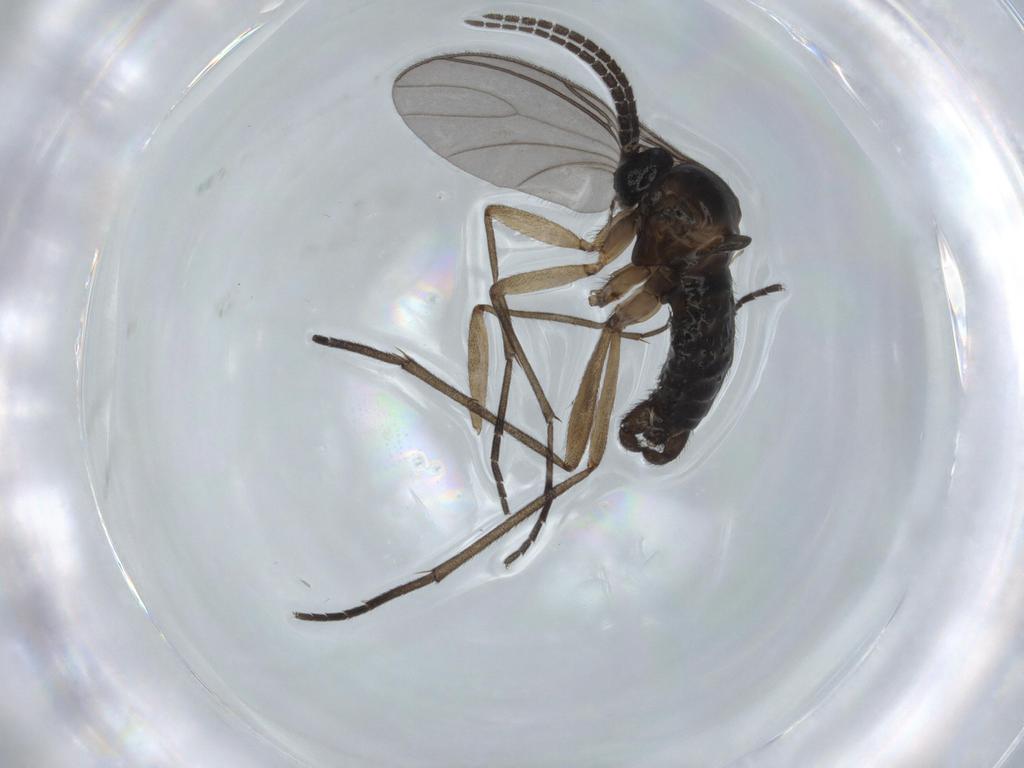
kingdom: Animalia
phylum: Arthropoda
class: Insecta
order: Diptera
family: Sciaridae
